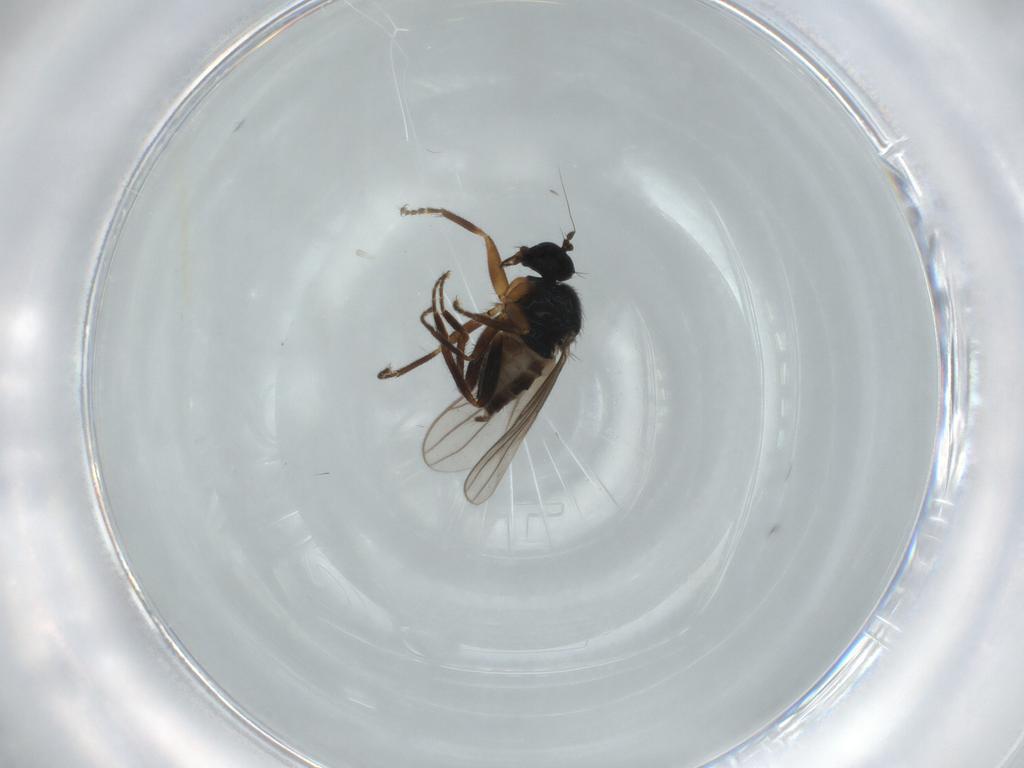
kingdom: Animalia
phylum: Arthropoda
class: Insecta
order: Diptera
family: Hybotidae
